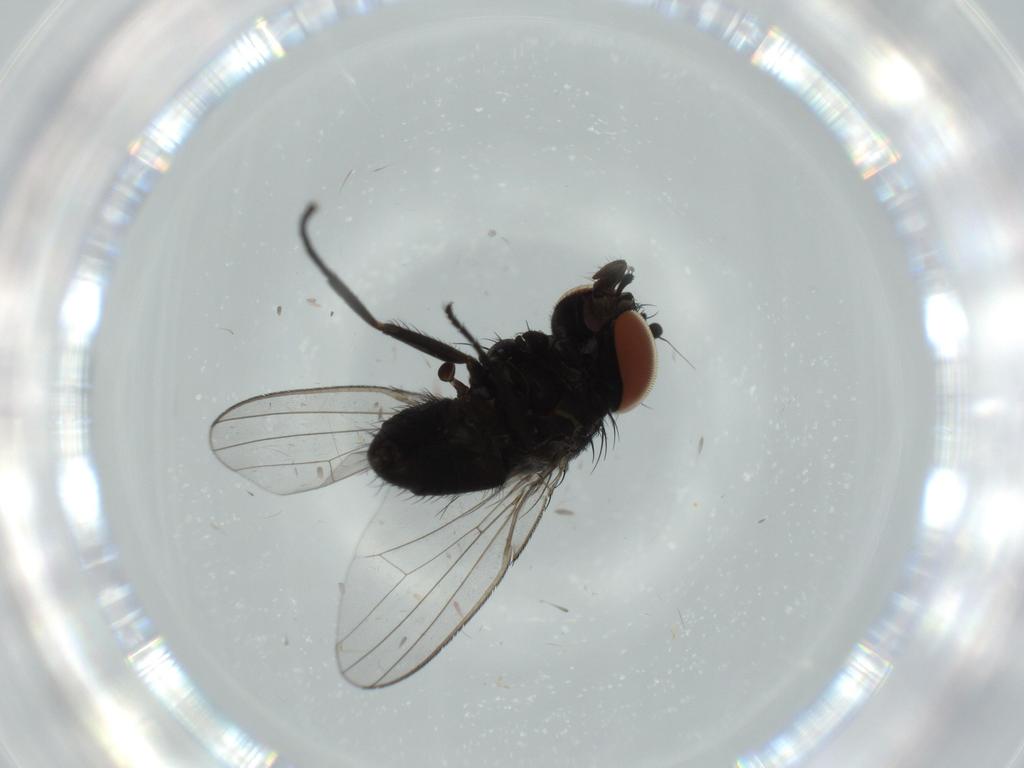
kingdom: Animalia
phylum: Arthropoda
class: Insecta
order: Diptera
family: Milichiidae
